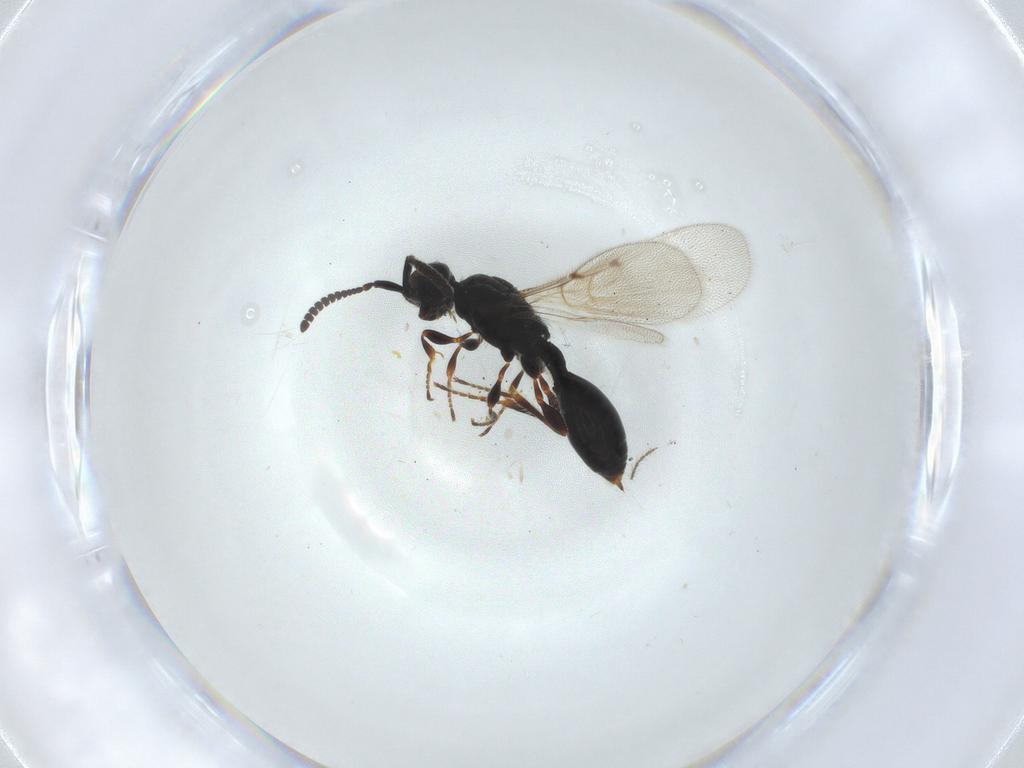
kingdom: Animalia
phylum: Arthropoda
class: Insecta
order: Hymenoptera
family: Diapriidae
